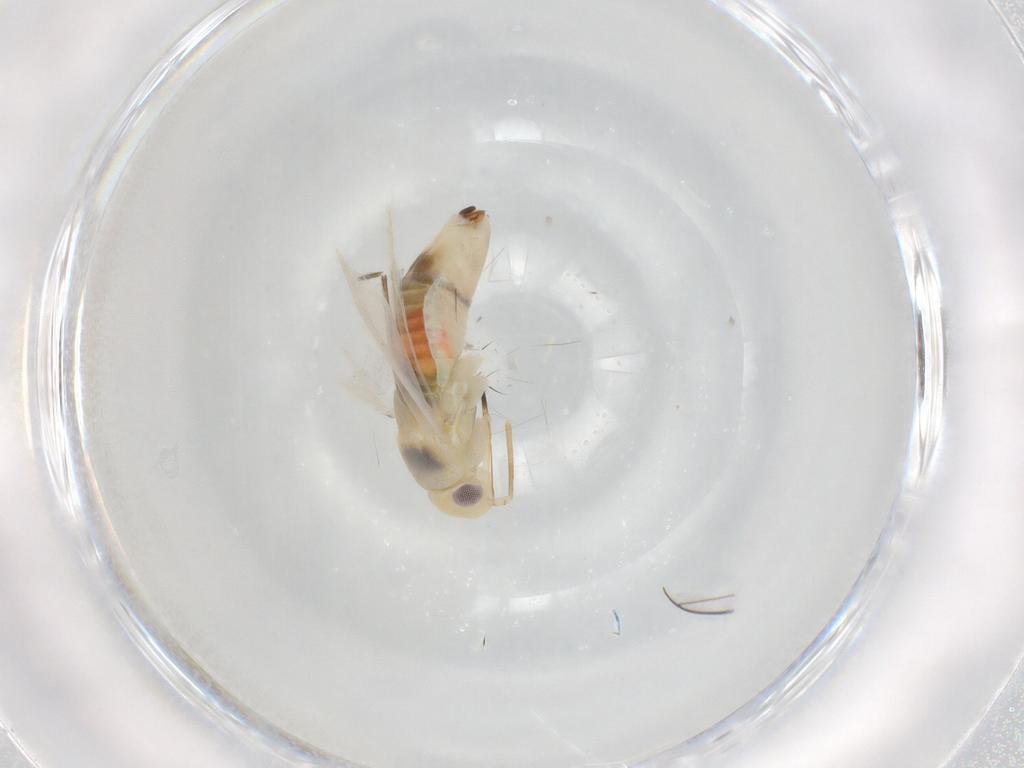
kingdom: Animalia
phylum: Arthropoda
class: Insecta
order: Hemiptera
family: Miridae
